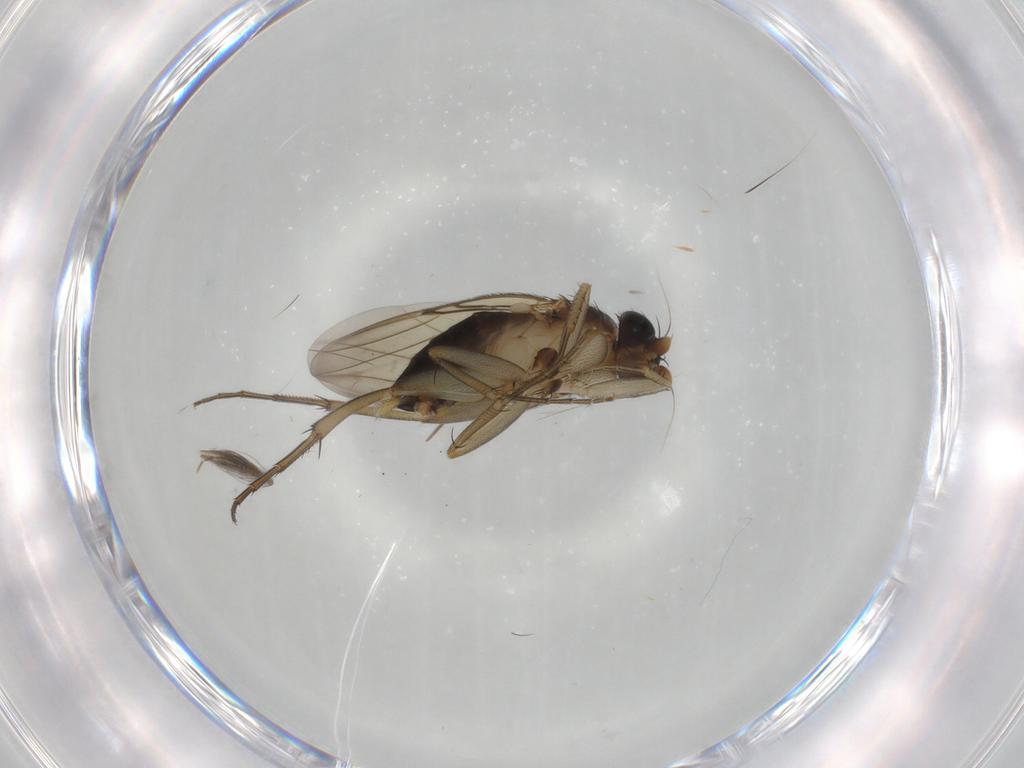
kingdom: Animalia
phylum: Arthropoda
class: Insecta
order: Diptera
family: Phoridae
